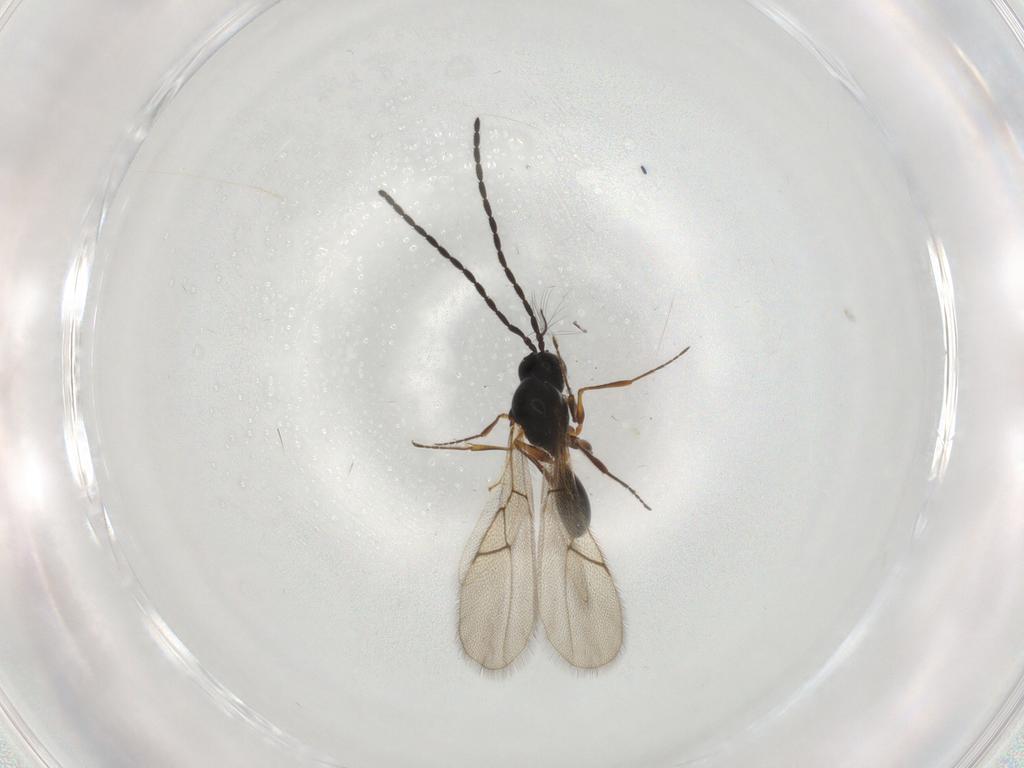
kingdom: Animalia
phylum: Arthropoda
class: Insecta
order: Hymenoptera
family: Figitidae
